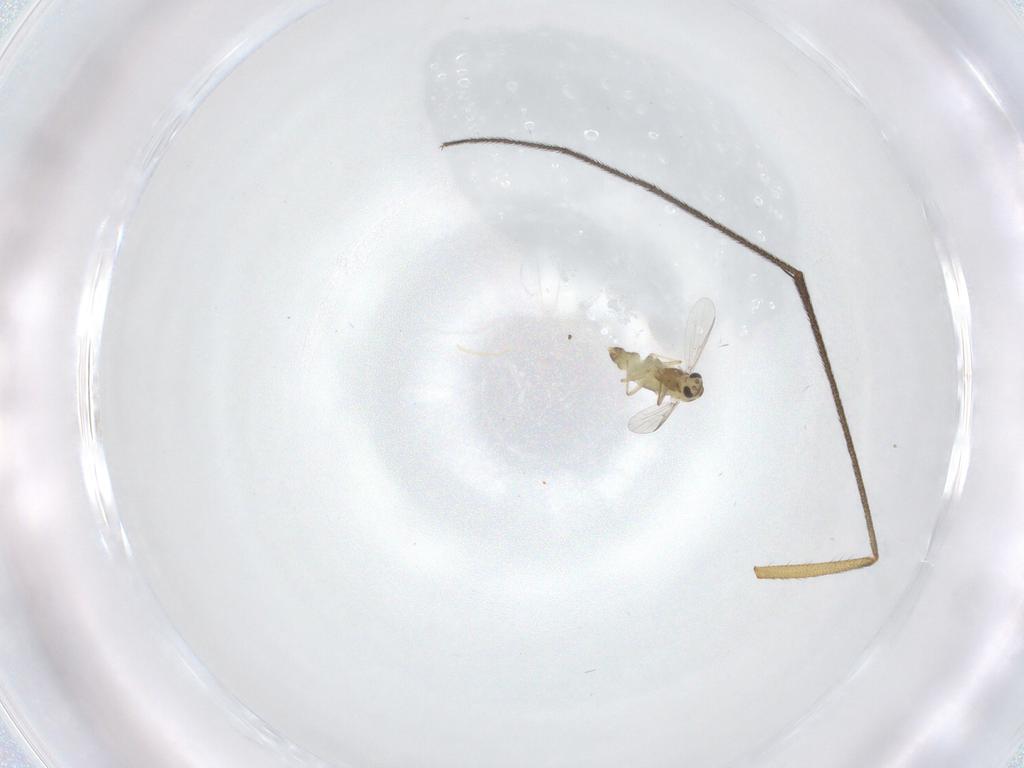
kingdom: Animalia
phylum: Arthropoda
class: Insecta
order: Diptera
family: Chironomidae
